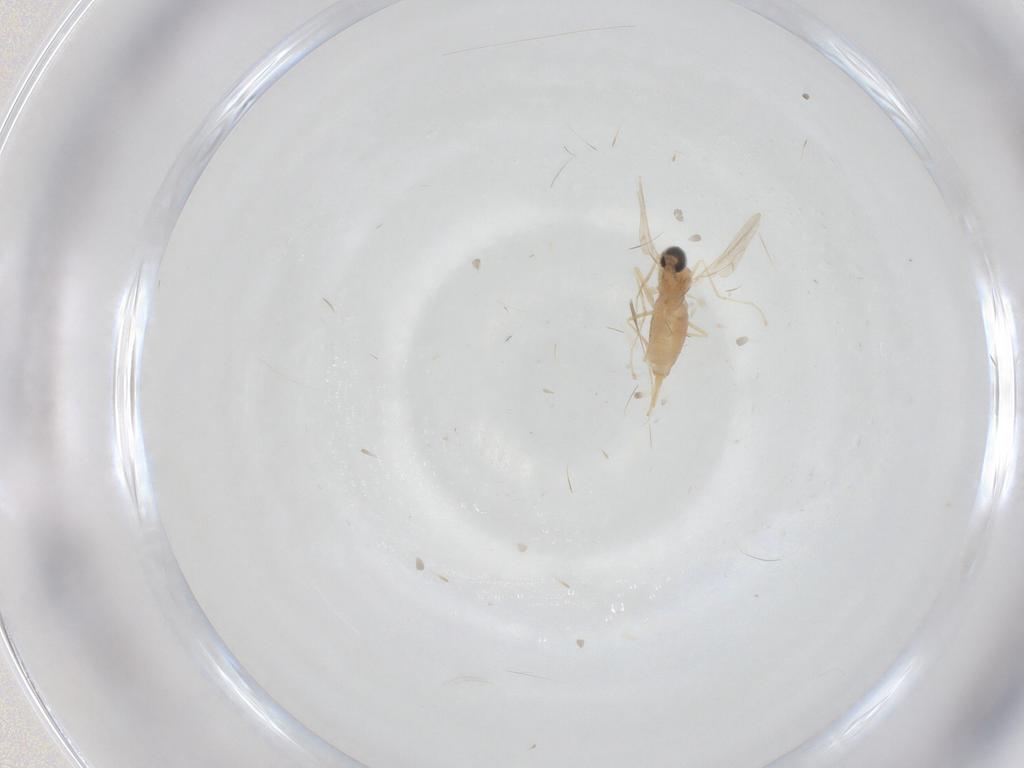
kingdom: Animalia
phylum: Arthropoda
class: Insecta
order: Diptera
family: Cecidomyiidae
